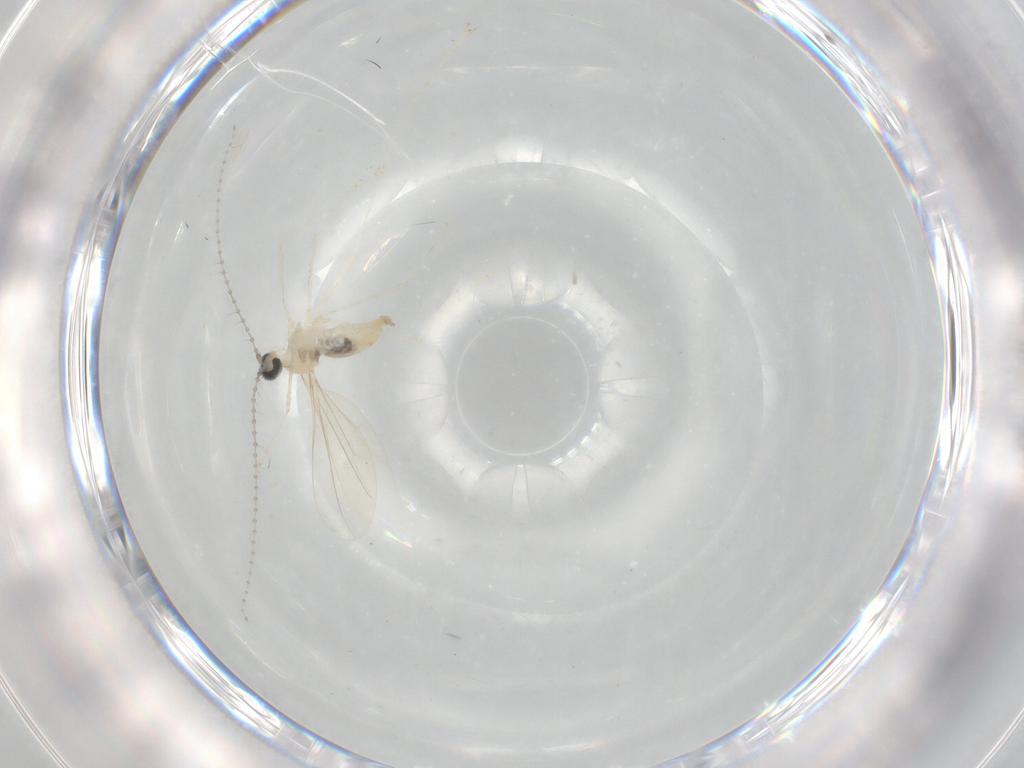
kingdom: Animalia
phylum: Arthropoda
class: Insecta
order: Diptera
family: Cecidomyiidae
